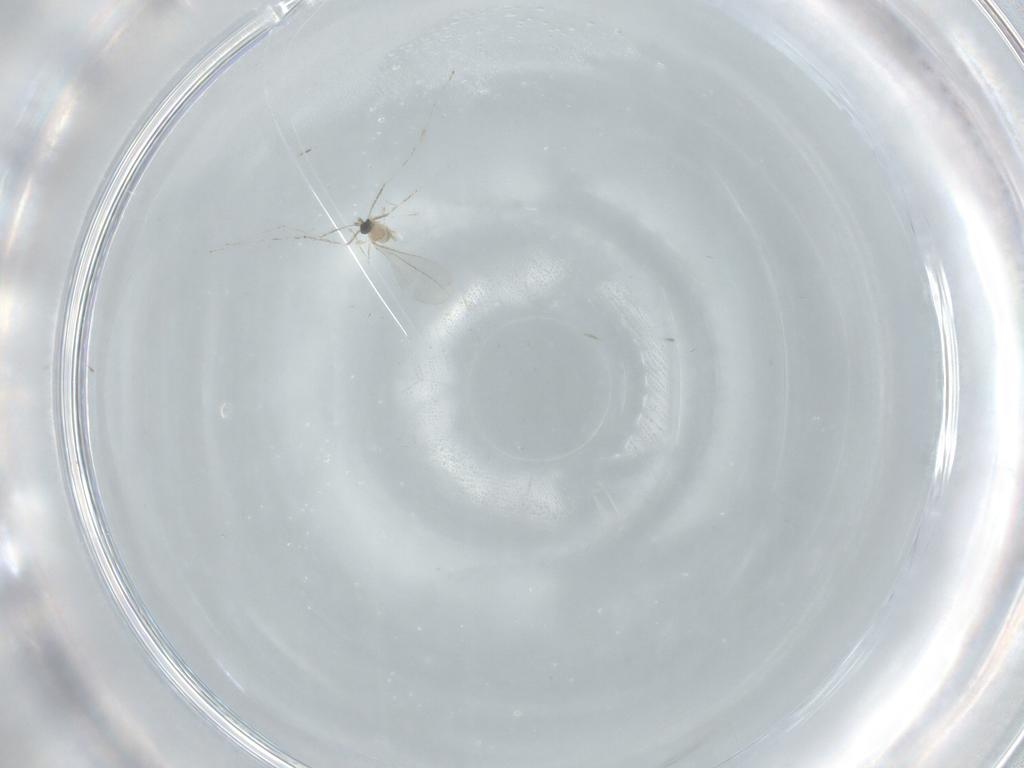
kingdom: Animalia
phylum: Arthropoda
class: Insecta
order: Diptera
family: Cecidomyiidae
